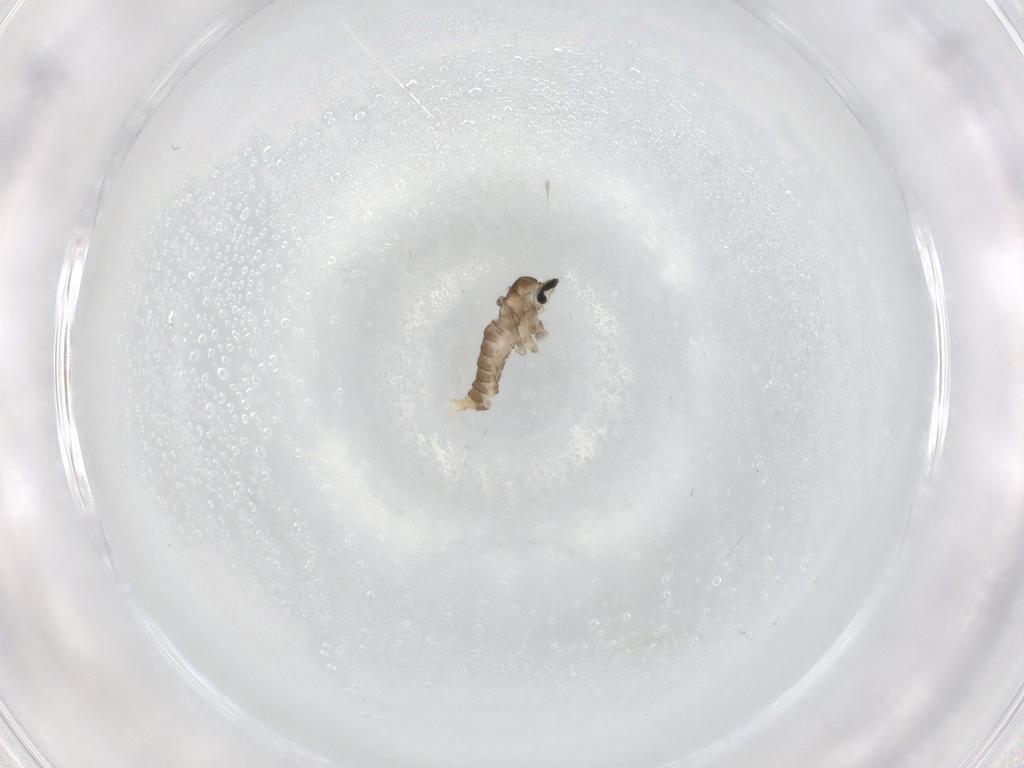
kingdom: Animalia
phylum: Arthropoda
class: Insecta
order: Diptera
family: Cecidomyiidae
